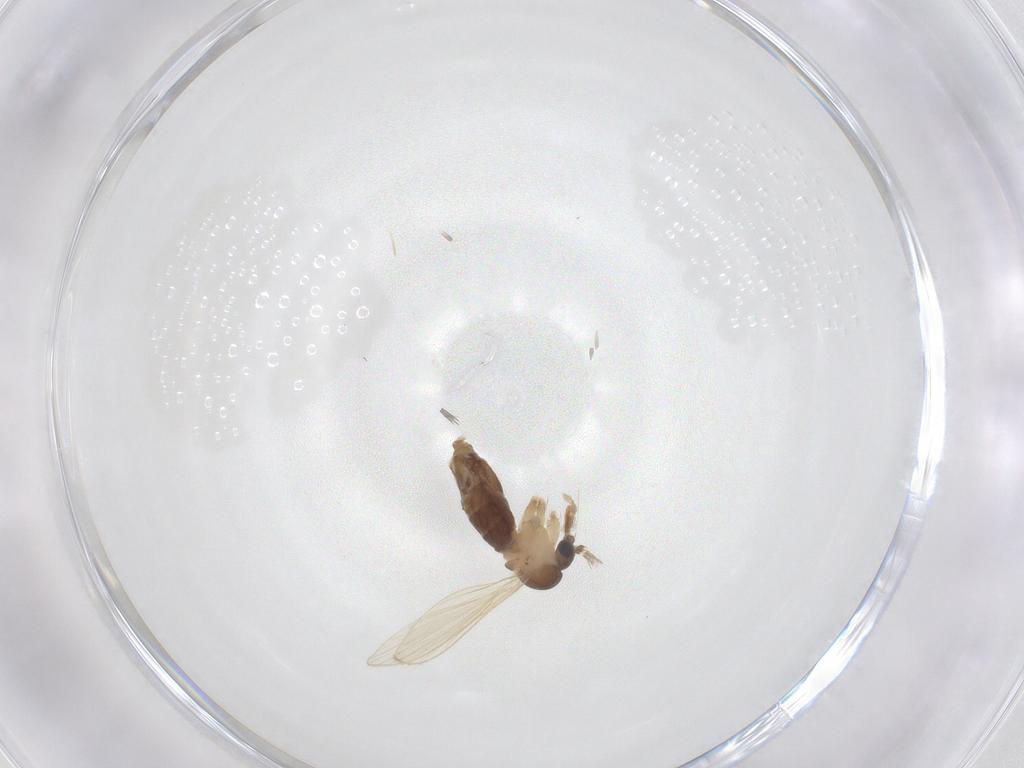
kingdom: Animalia
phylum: Arthropoda
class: Insecta
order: Diptera
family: Psychodidae
